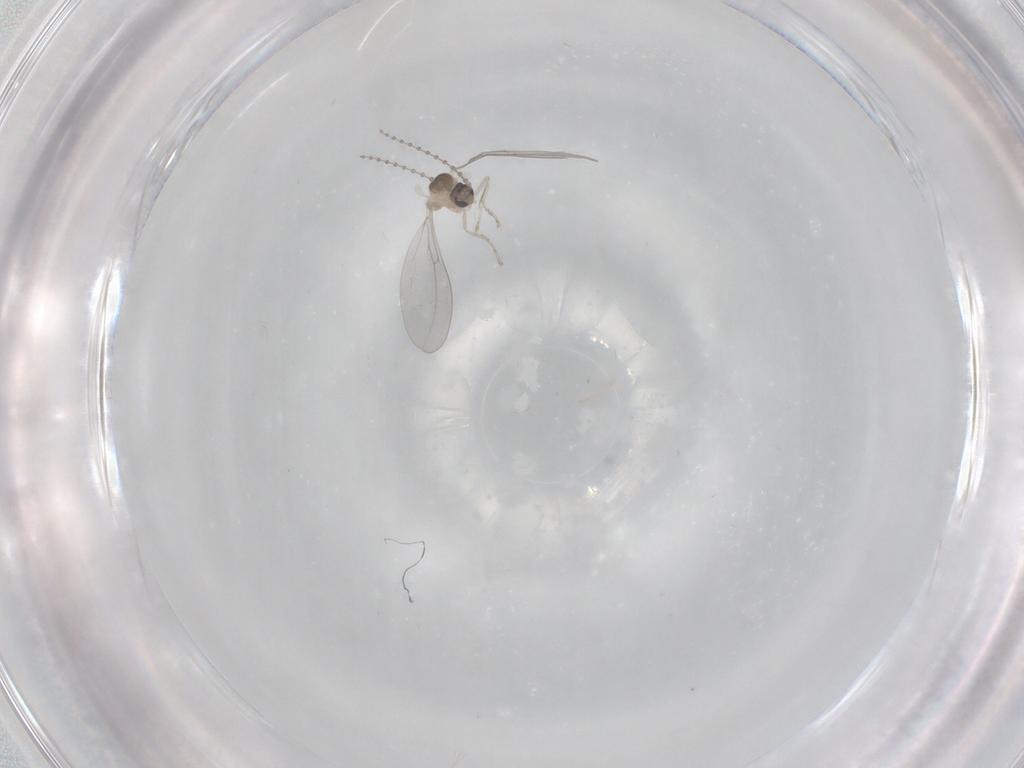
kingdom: Animalia
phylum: Arthropoda
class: Insecta
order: Diptera
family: Cecidomyiidae
